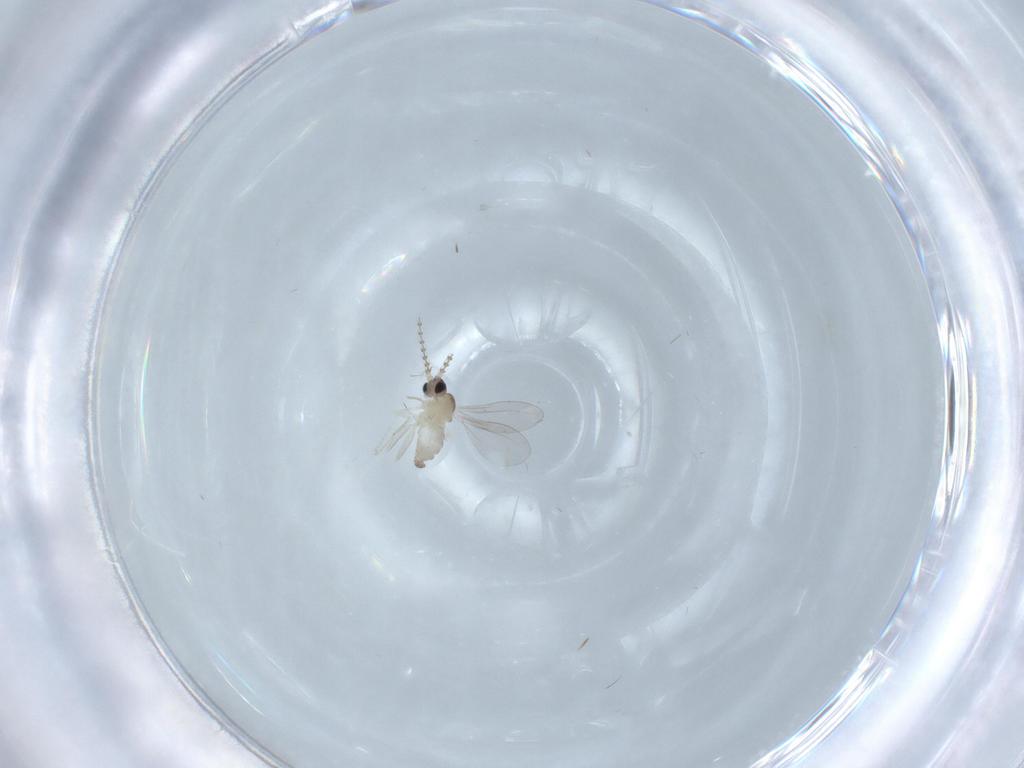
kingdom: Animalia
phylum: Arthropoda
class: Insecta
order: Diptera
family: Cecidomyiidae
